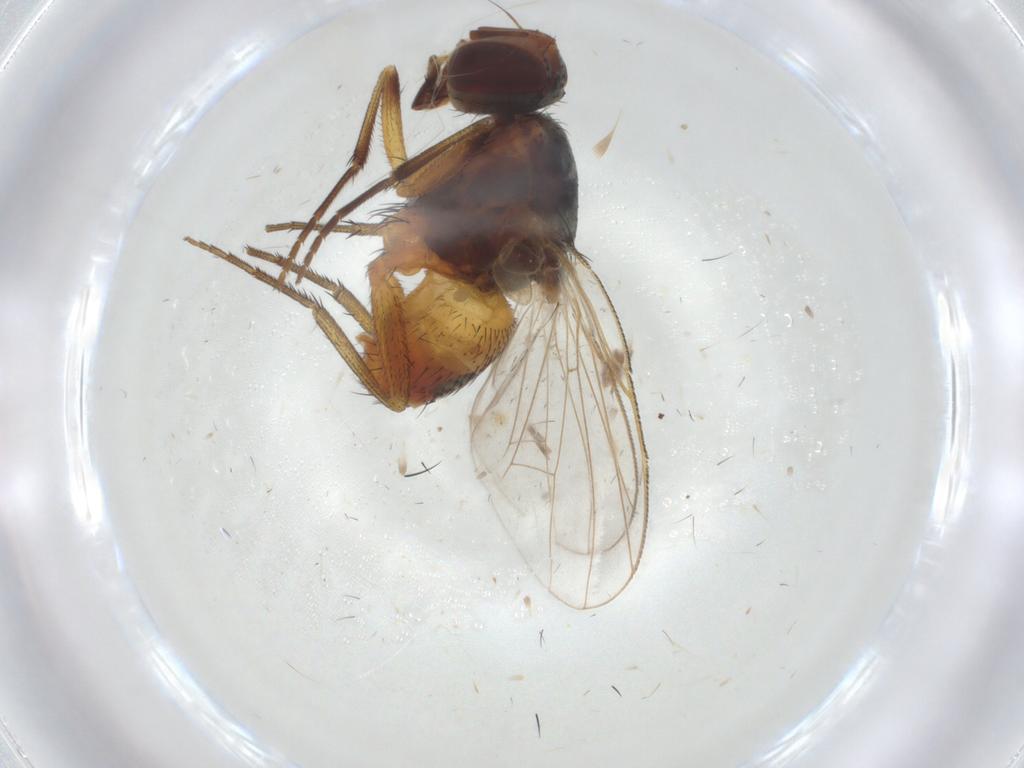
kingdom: Animalia
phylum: Arthropoda
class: Insecta
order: Diptera
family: Muscidae
